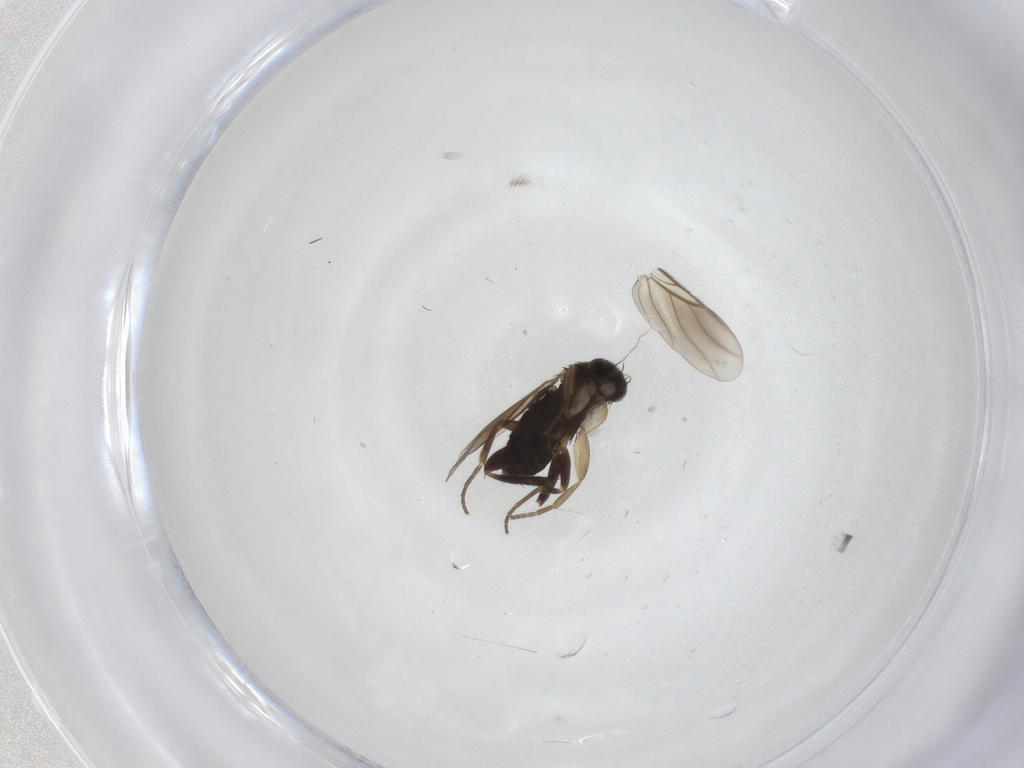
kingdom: Animalia
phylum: Arthropoda
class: Insecta
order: Diptera
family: Phoridae
